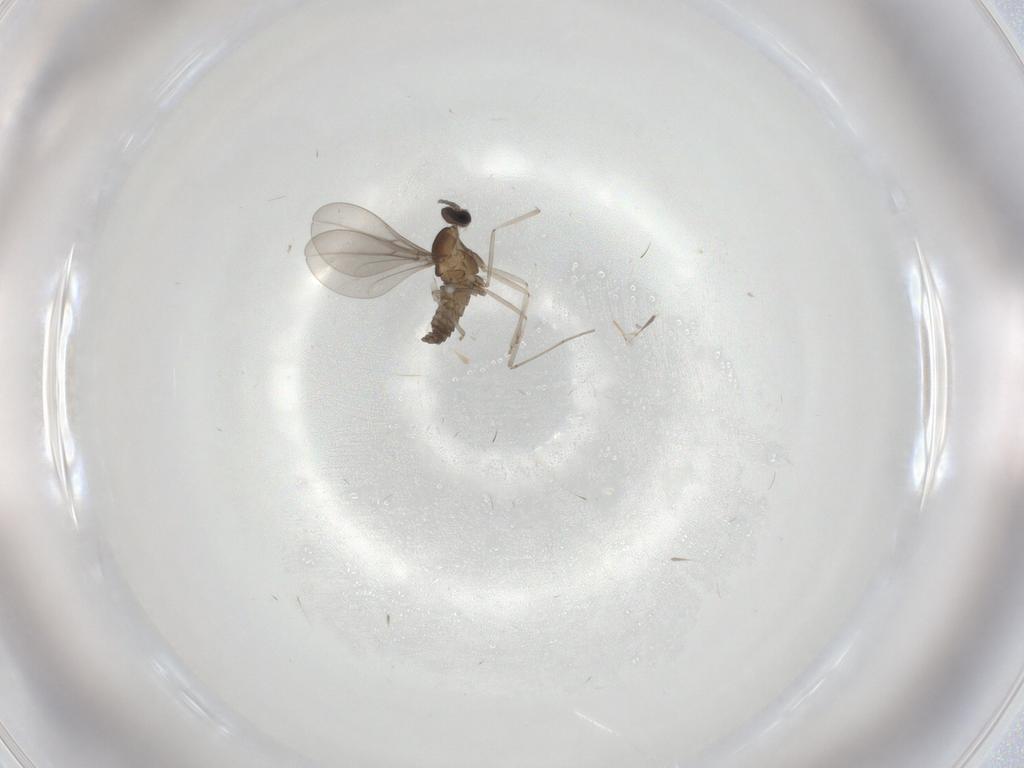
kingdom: Animalia
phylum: Arthropoda
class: Insecta
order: Diptera
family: Cecidomyiidae
